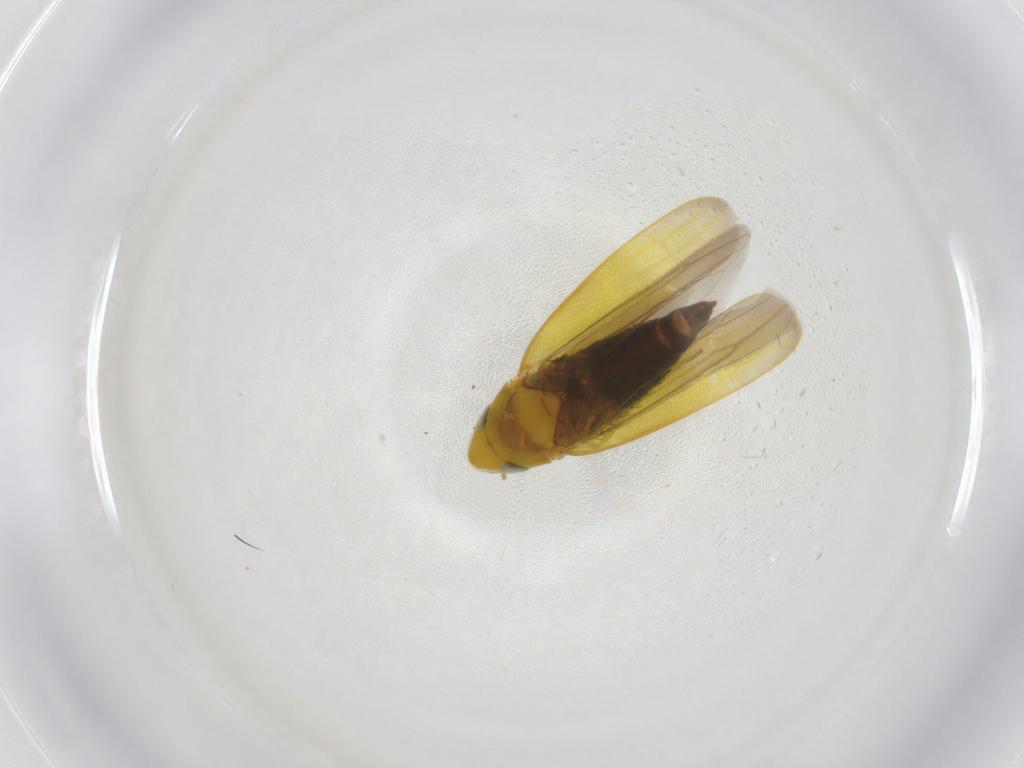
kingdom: Animalia
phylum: Arthropoda
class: Insecta
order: Hemiptera
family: Cicadellidae
